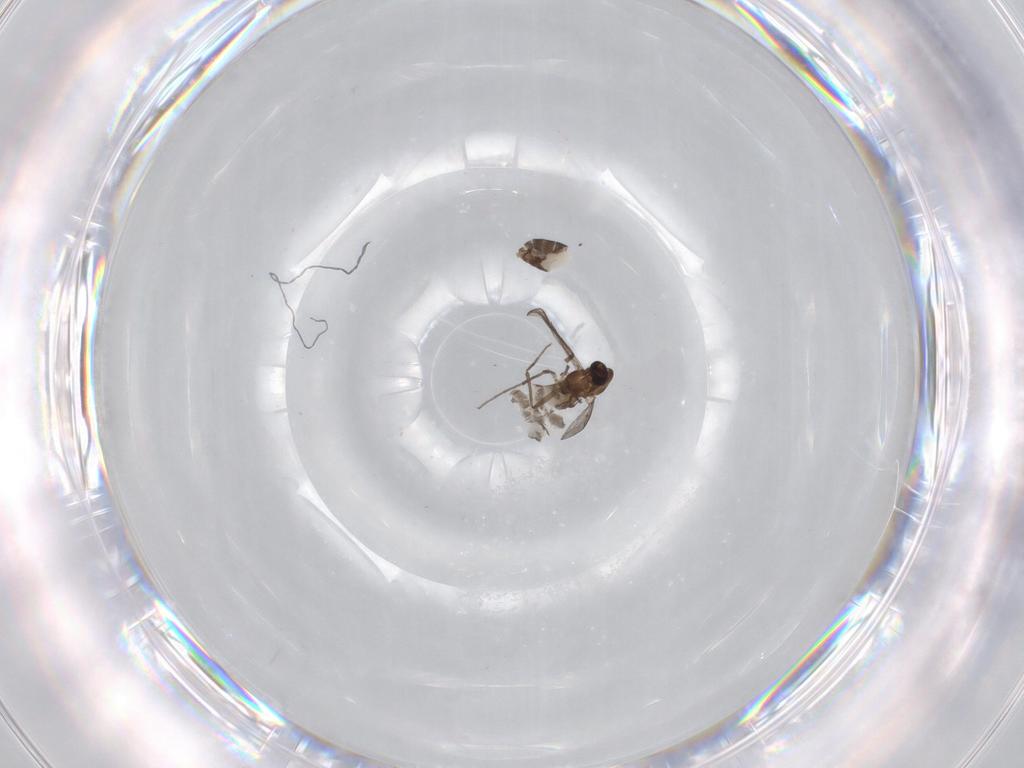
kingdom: Animalia
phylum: Arthropoda
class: Insecta
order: Diptera
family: Chironomidae
